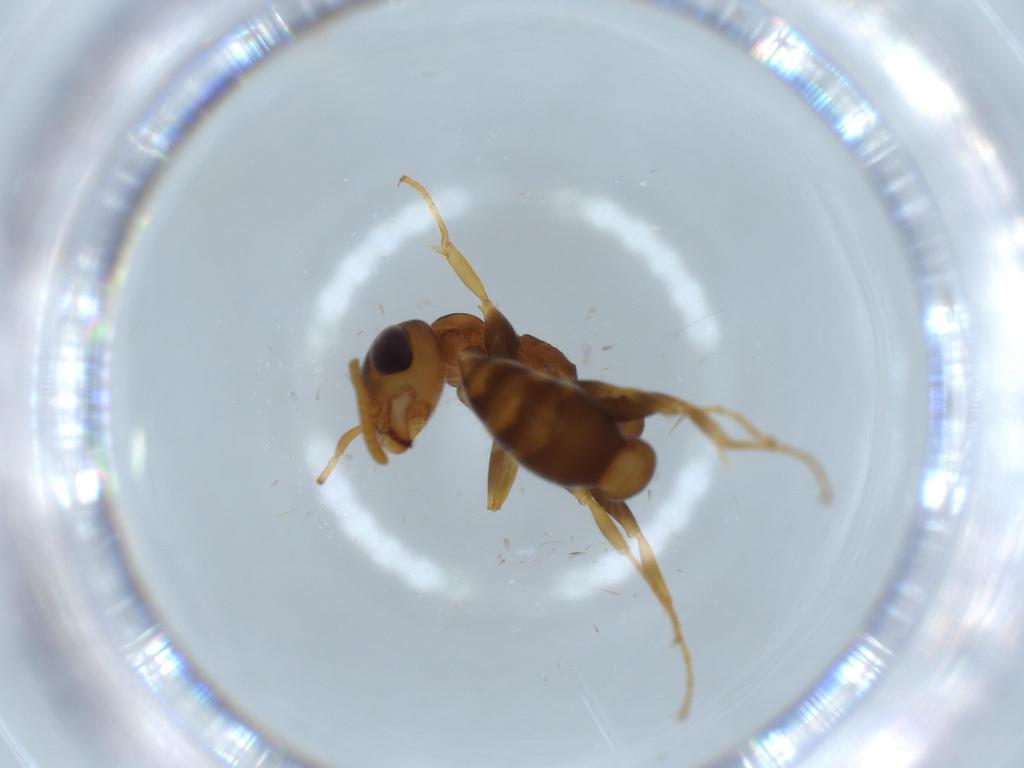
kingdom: Animalia
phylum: Arthropoda
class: Insecta
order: Hymenoptera
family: Formicidae
